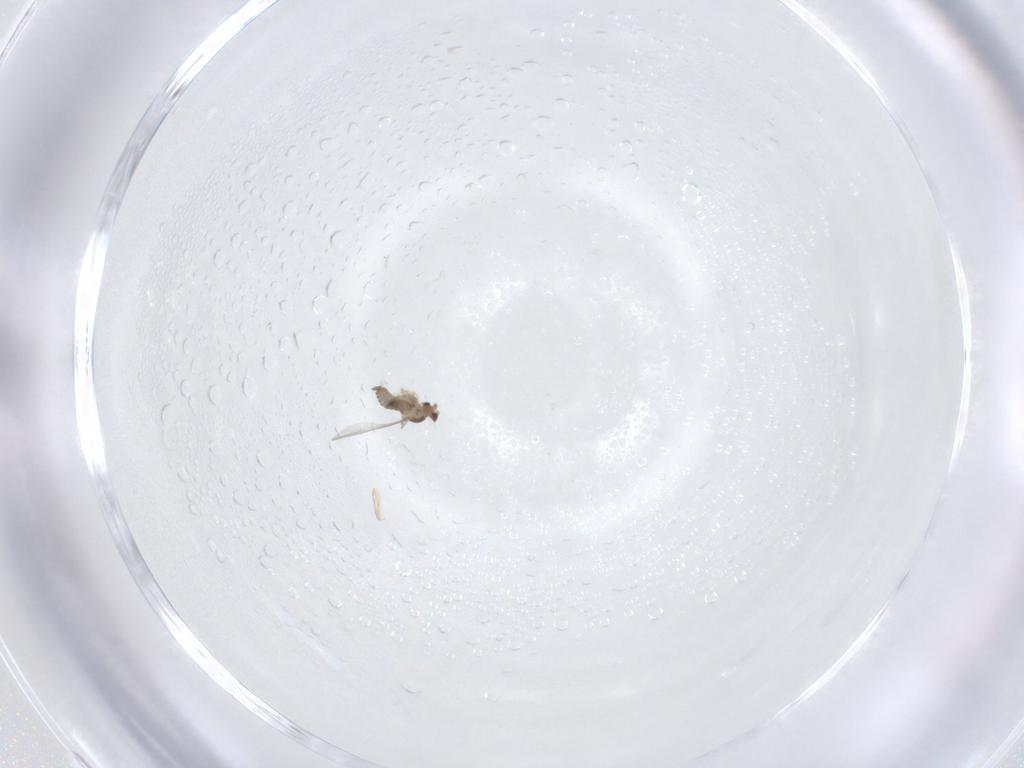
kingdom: Animalia
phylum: Arthropoda
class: Insecta
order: Diptera
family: Cecidomyiidae
